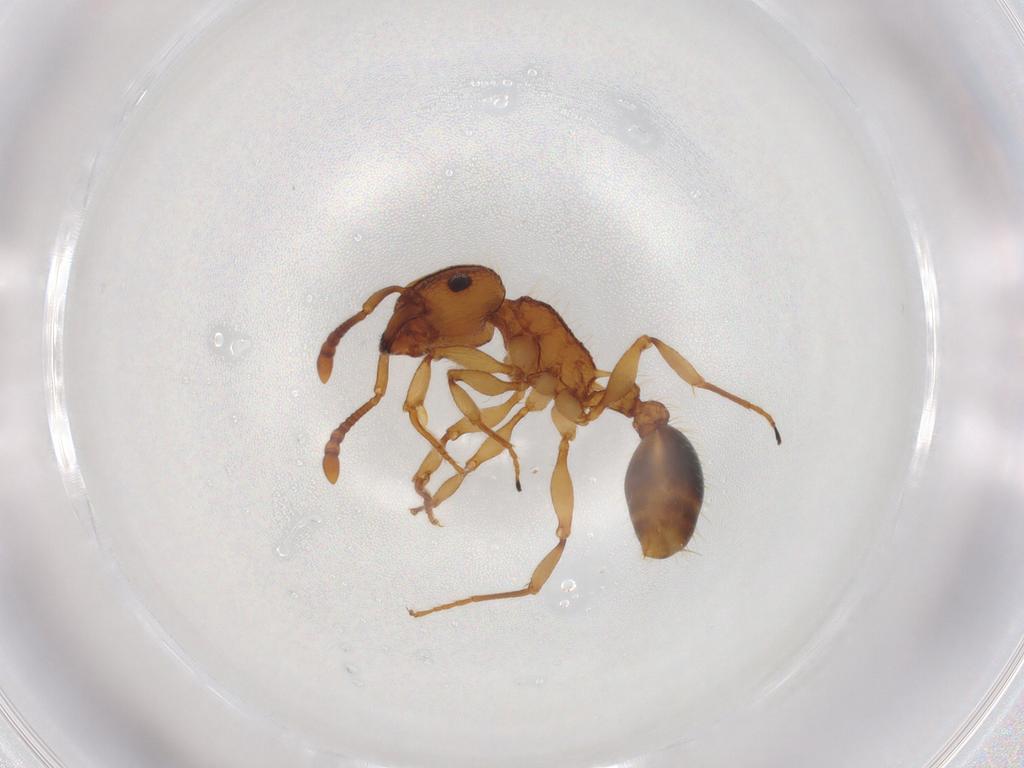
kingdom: Animalia
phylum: Arthropoda
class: Insecta
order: Hymenoptera
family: Formicidae
